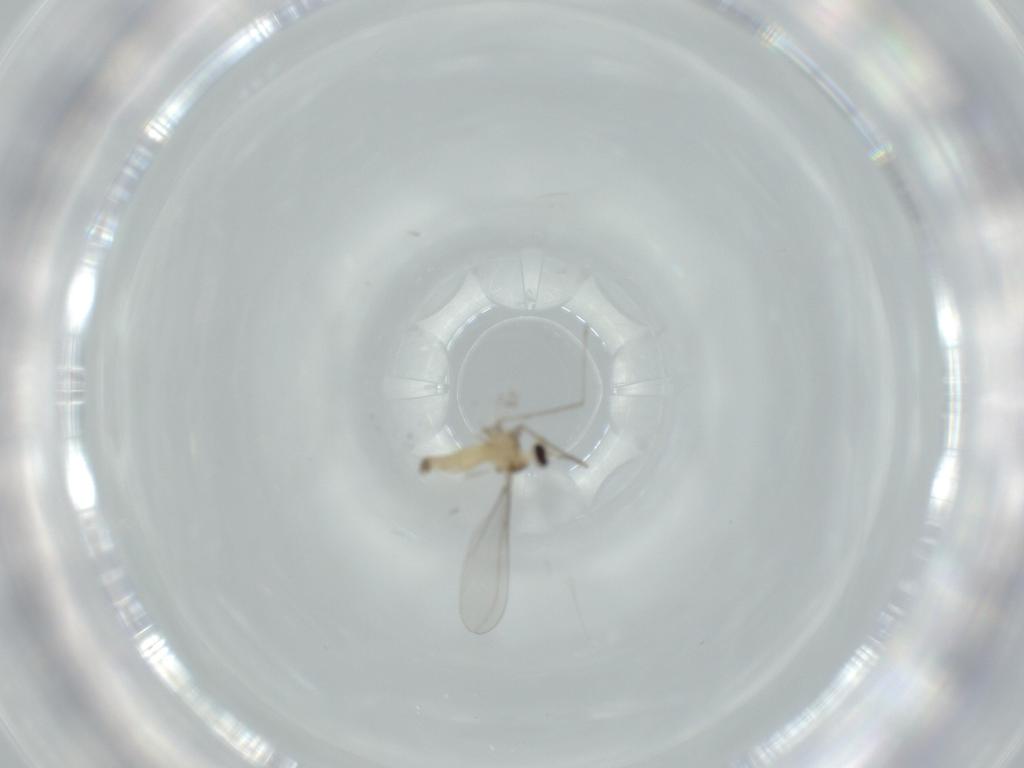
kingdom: Animalia
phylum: Arthropoda
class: Insecta
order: Diptera
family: Cecidomyiidae
